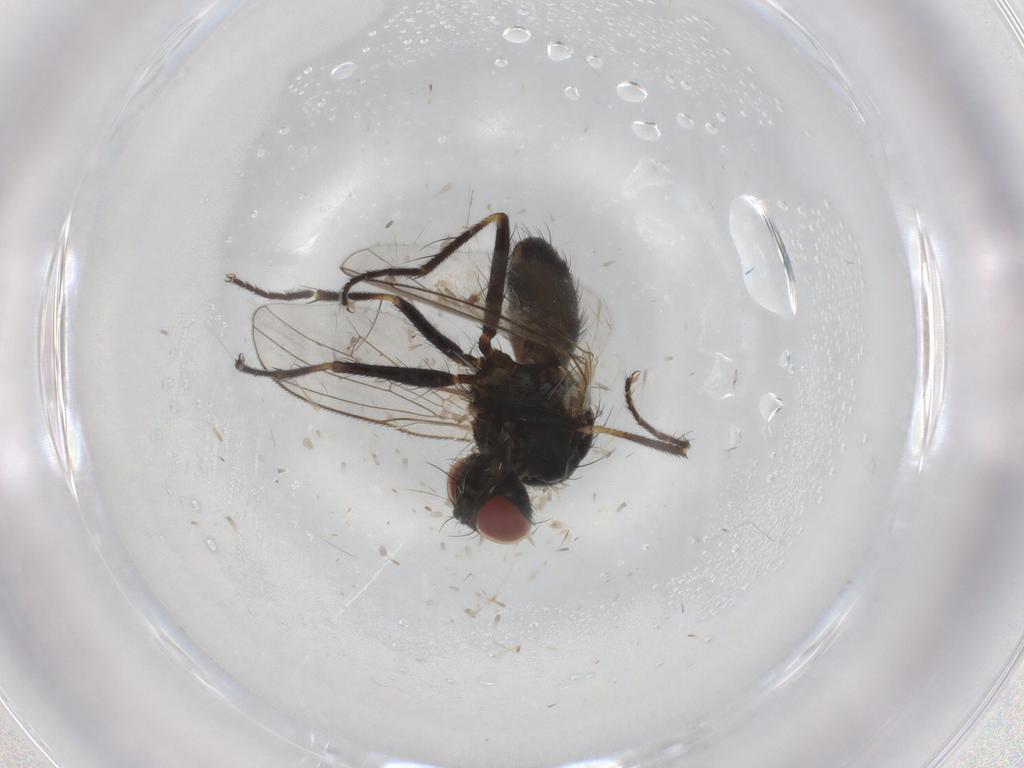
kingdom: Animalia
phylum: Arthropoda
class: Insecta
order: Diptera
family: Muscidae
